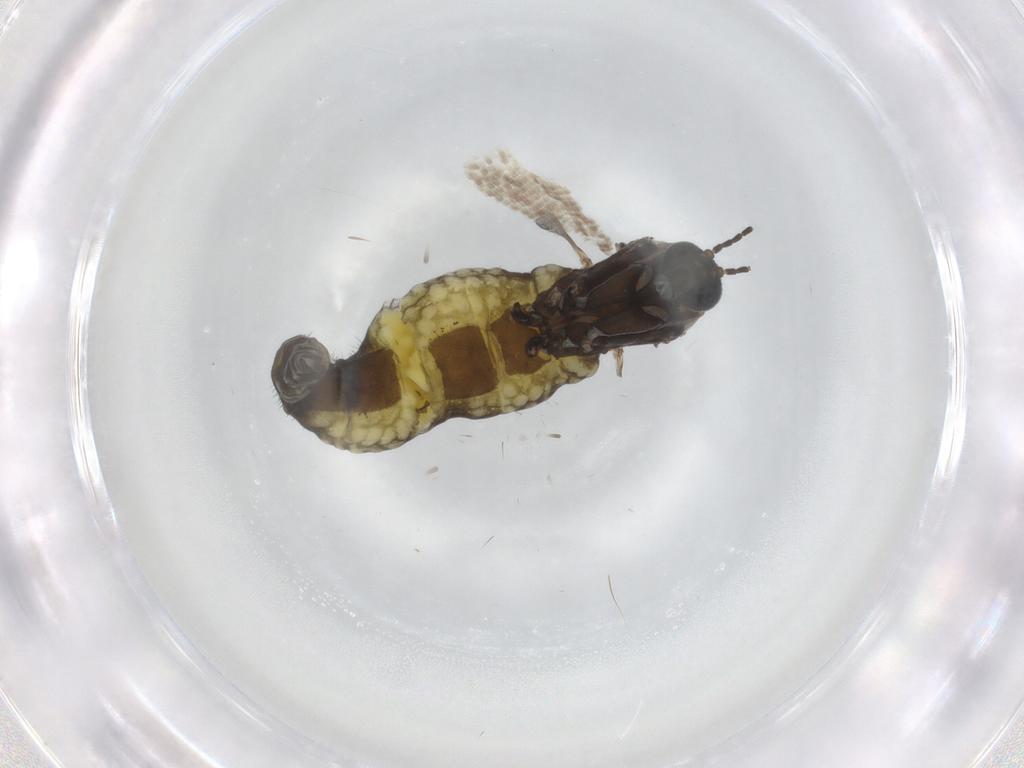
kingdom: Animalia
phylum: Arthropoda
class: Insecta
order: Diptera
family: Sciaridae
